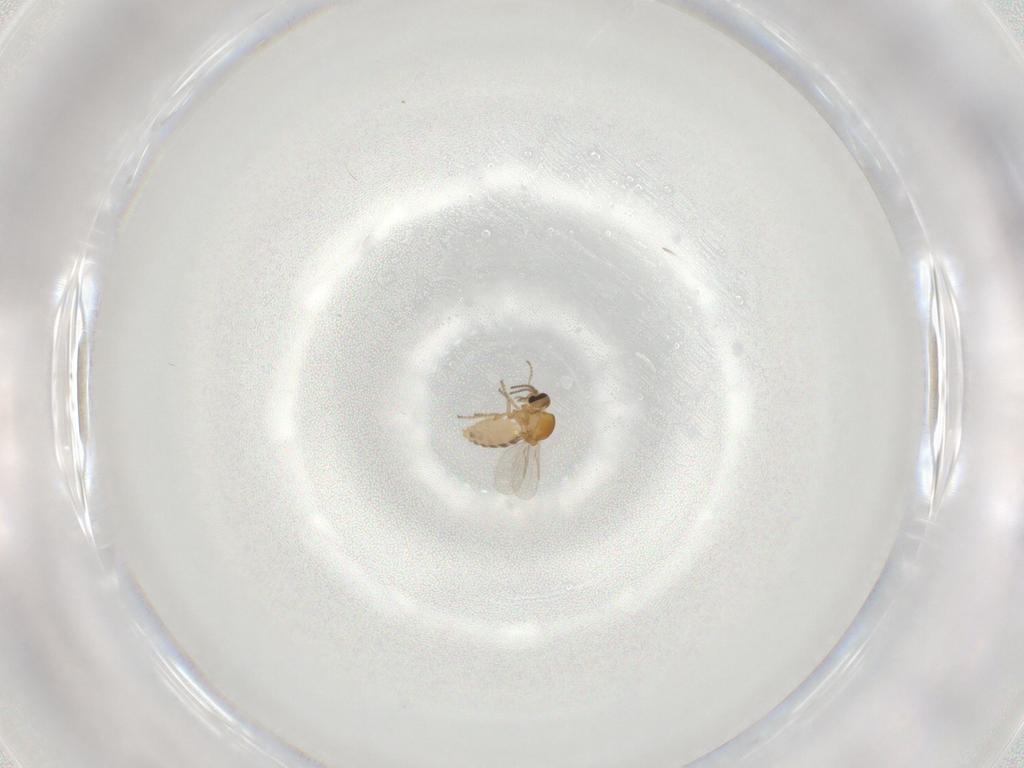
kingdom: Animalia
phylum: Arthropoda
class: Insecta
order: Diptera
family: Ceratopogonidae
